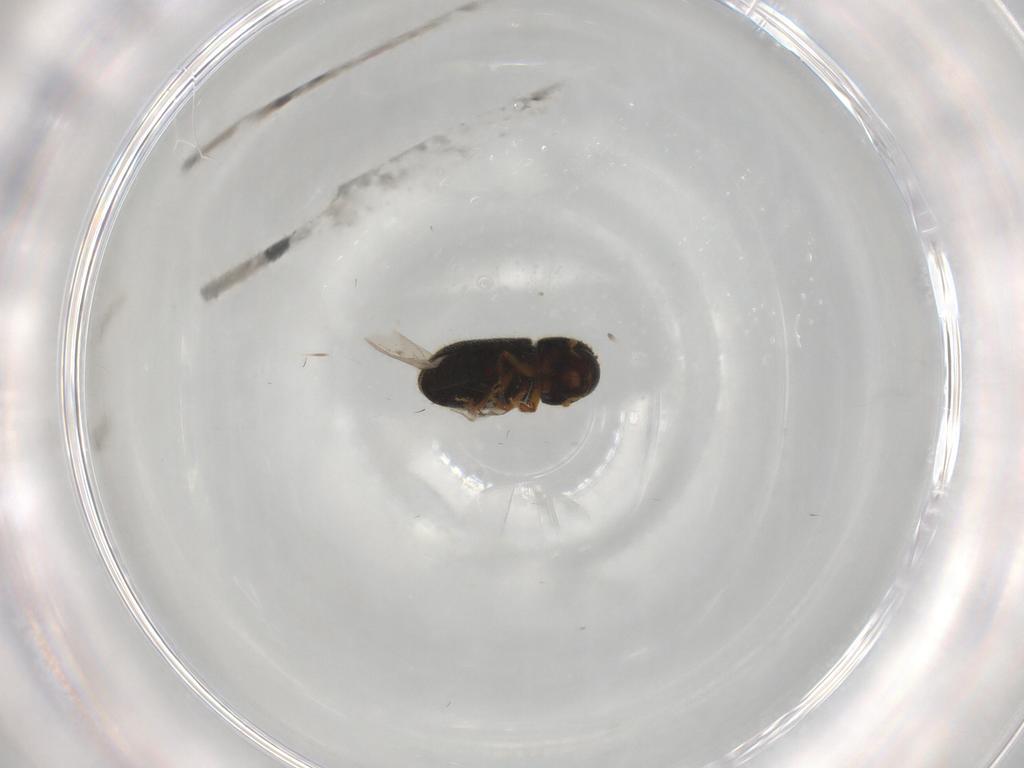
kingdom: Animalia
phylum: Arthropoda
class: Insecta
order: Coleoptera
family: Curculionidae
